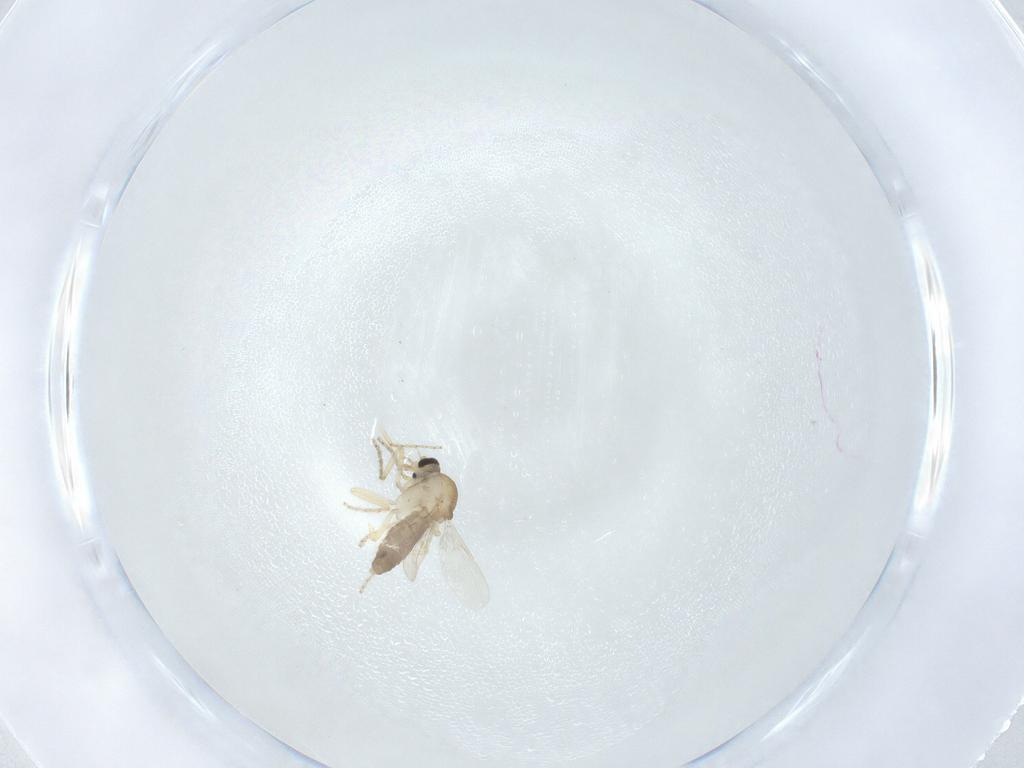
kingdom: Animalia
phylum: Arthropoda
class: Insecta
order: Diptera
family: Ceratopogonidae
